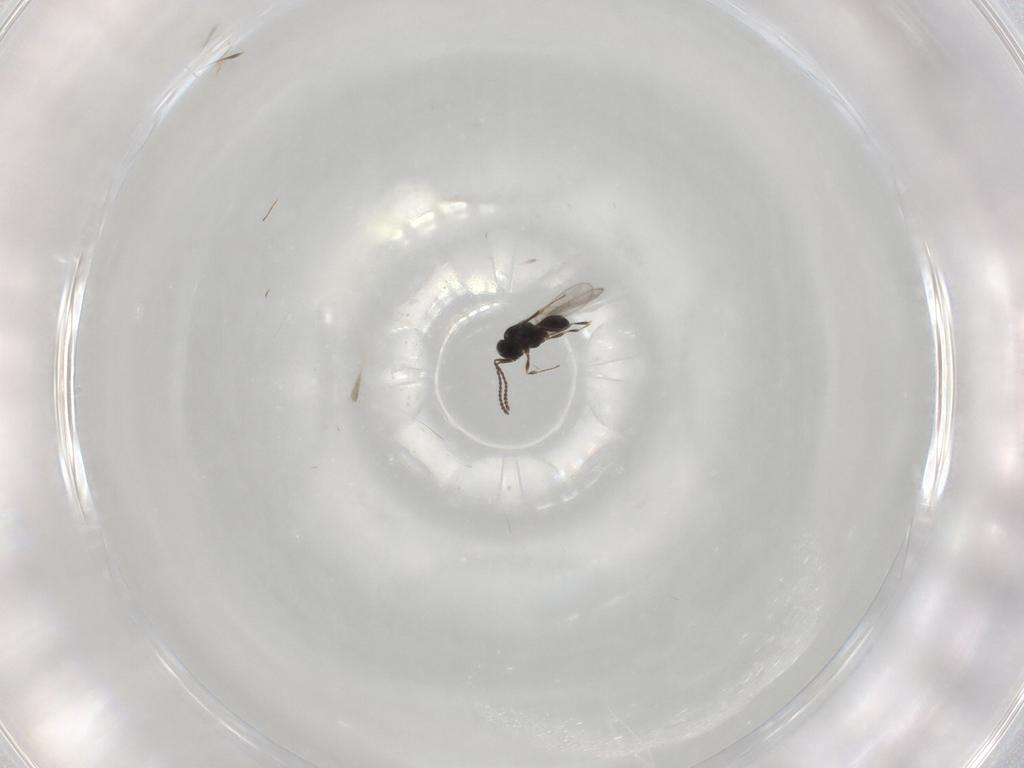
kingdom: Animalia
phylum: Arthropoda
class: Insecta
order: Hymenoptera
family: Scelionidae
